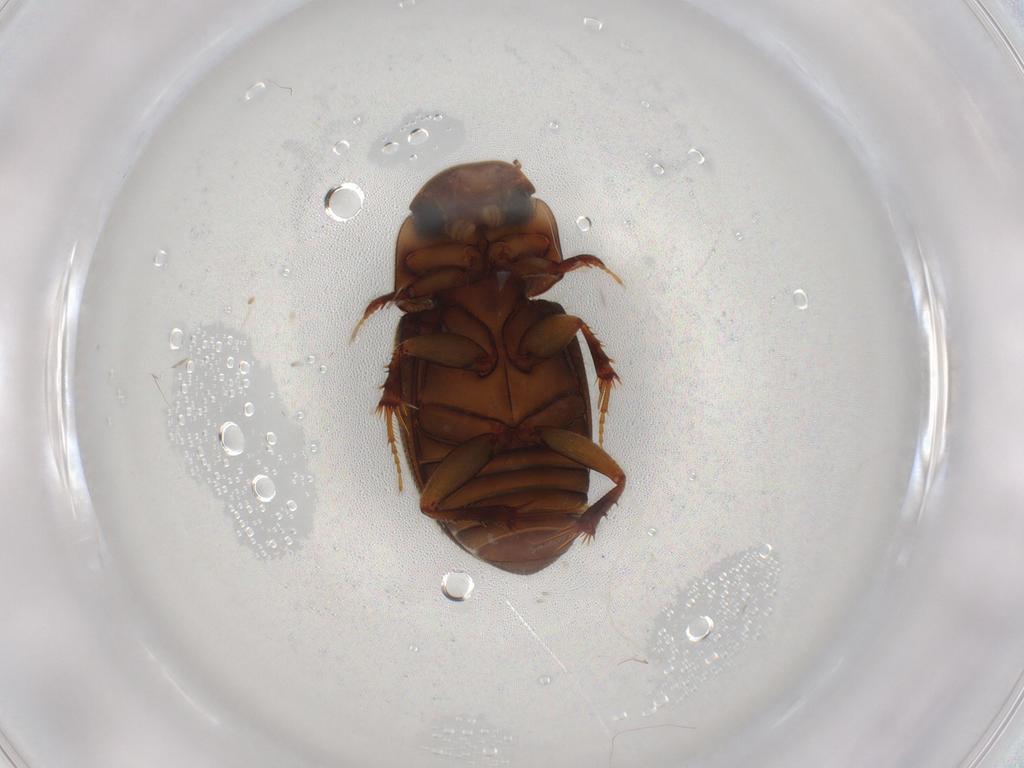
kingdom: Animalia
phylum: Arthropoda
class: Insecta
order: Coleoptera
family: Scarabaeidae
